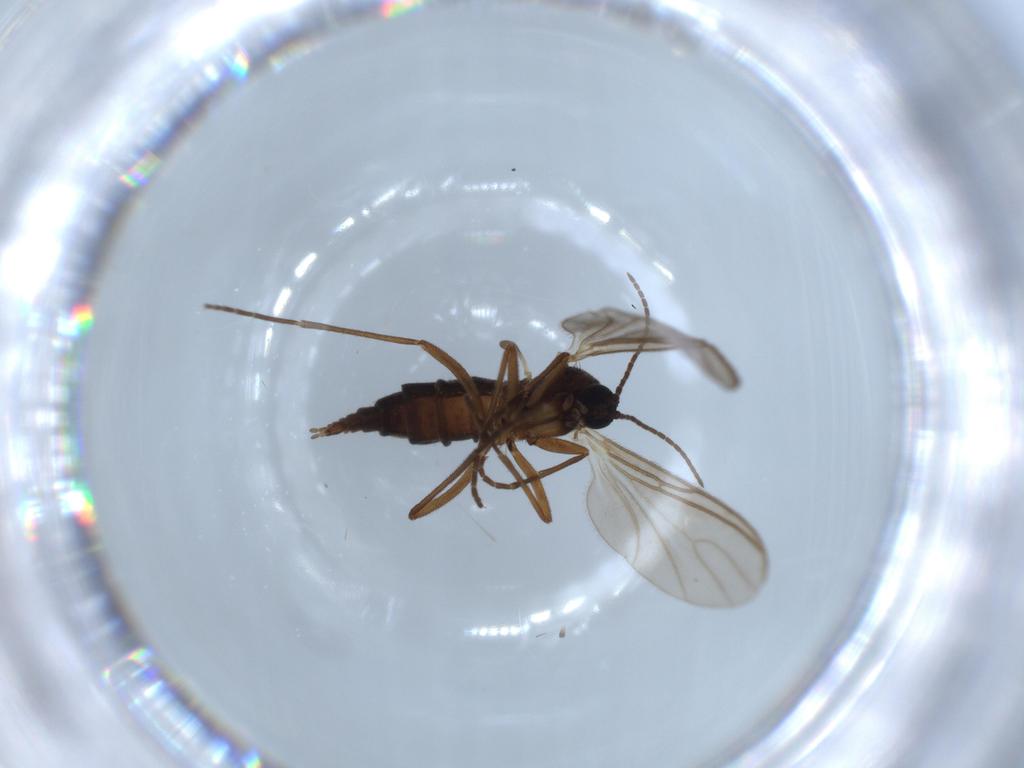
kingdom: Animalia
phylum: Arthropoda
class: Insecta
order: Diptera
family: Sciaridae
